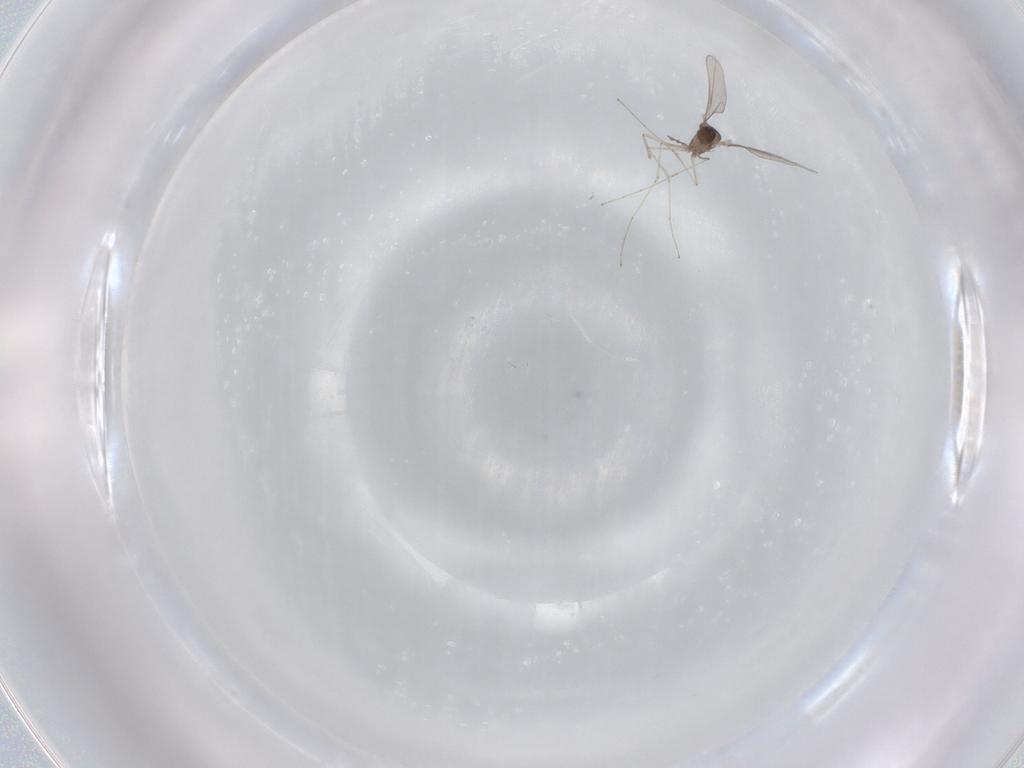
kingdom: Animalia
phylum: Arthropoda
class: Insecta
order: Diptera
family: Cecidomyiidae
